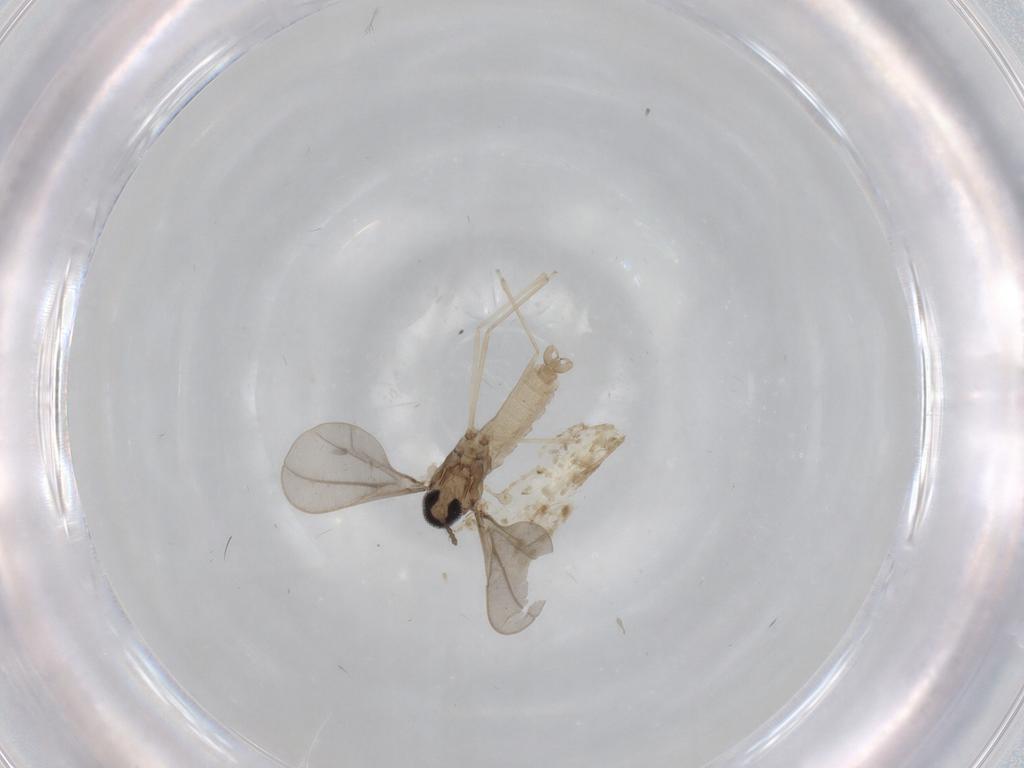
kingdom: Animalia
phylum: Arthropoda
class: Insecta
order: Diptera
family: Cecidomyiidae
